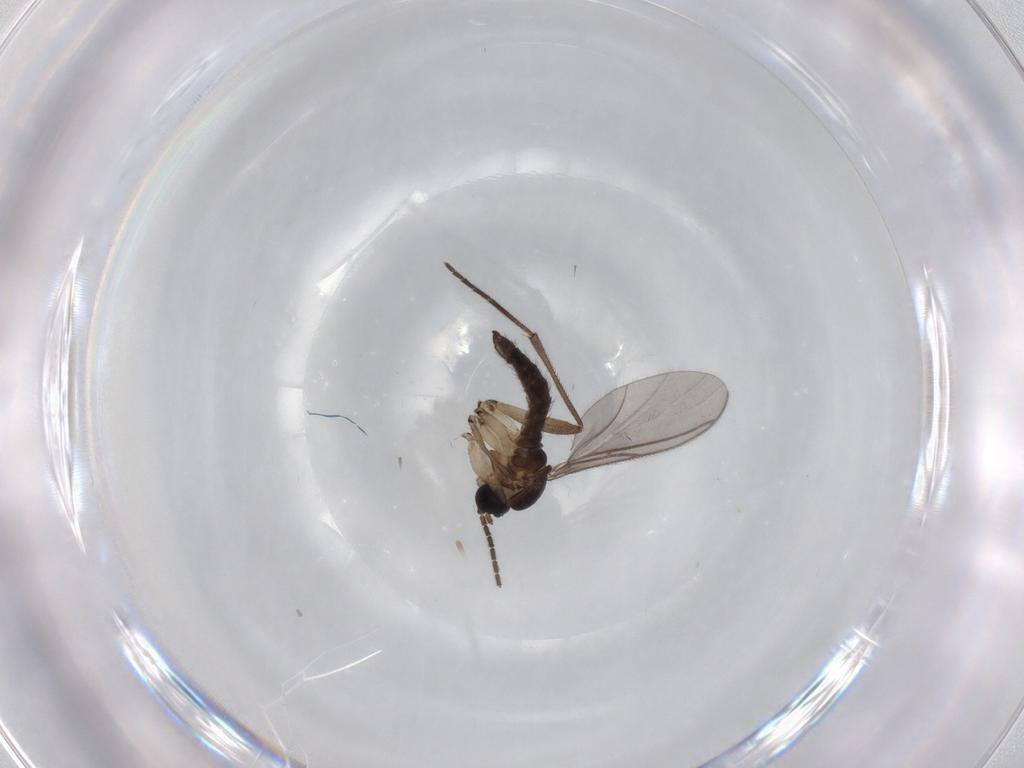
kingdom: Animalia
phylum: Arthropoda
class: Insecta
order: Diptera
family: Sciaridae
